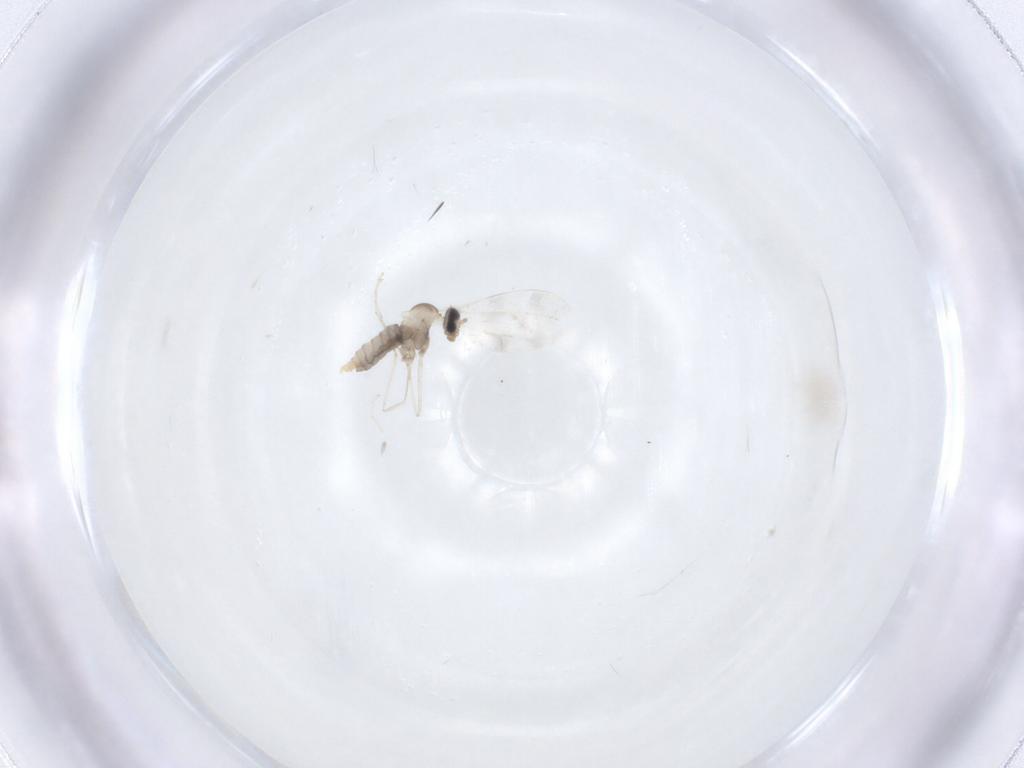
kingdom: Animalia
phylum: Arthropoda
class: Insecta
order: Diptera
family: Cecidomyiidae
